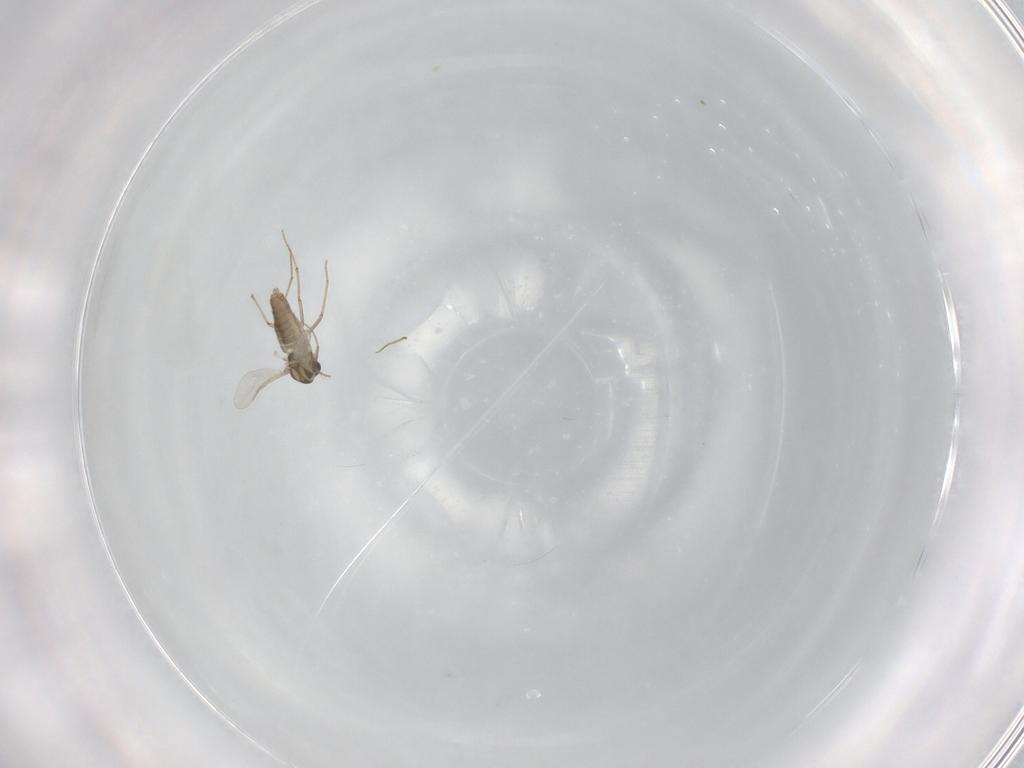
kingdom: Animalia
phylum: Arthropoda
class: Insecta
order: Diptera
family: Chironomidae
